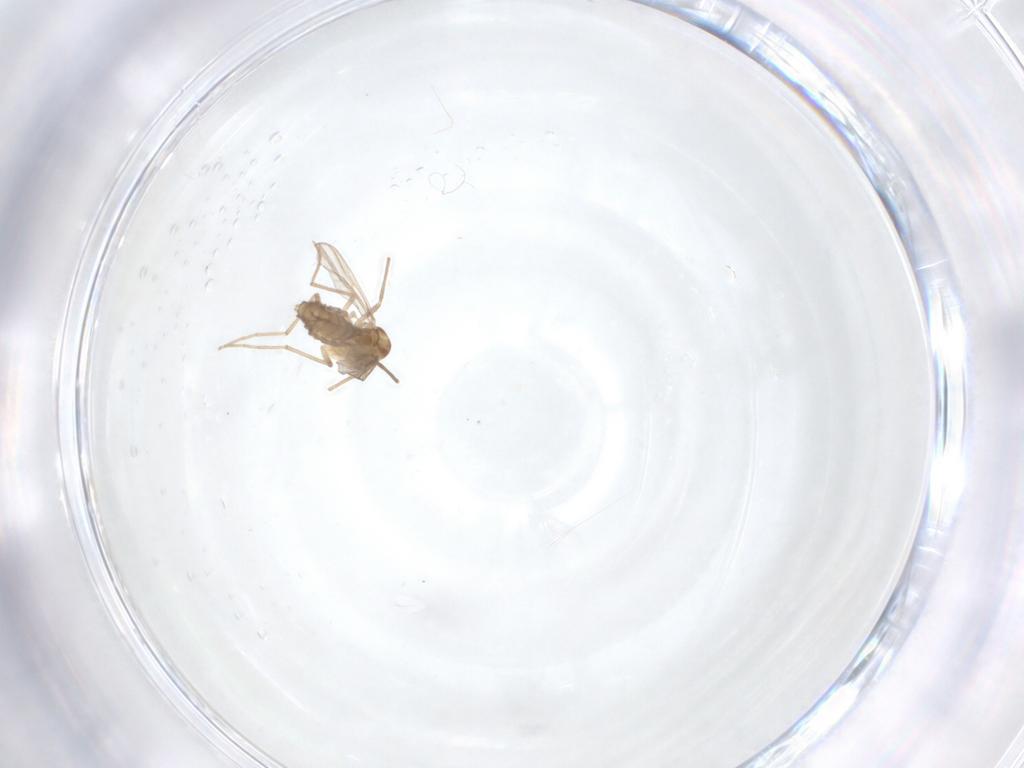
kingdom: Animalia
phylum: Arthropoda
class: Insecta
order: Diptera
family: Chironomidae
